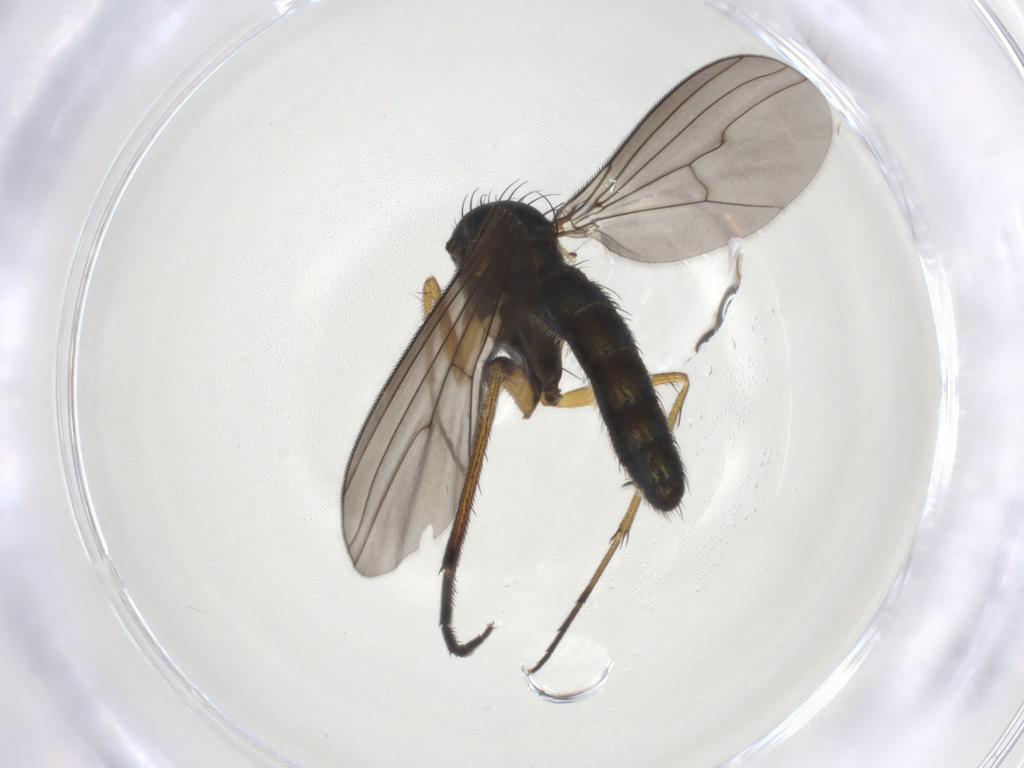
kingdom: Animalia
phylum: Arthropoda
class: Insecta
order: Diptera
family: Dolichopodidae
